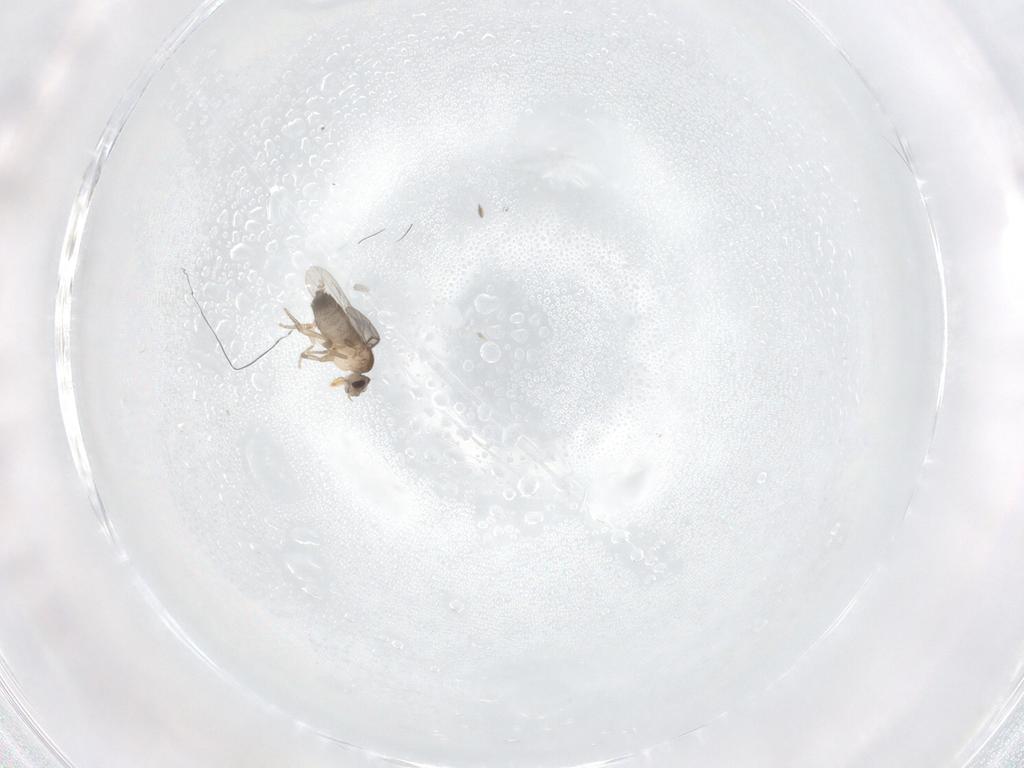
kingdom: Animalia
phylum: Arthropoda
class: Insecta
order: Diptera
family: Phoridae
